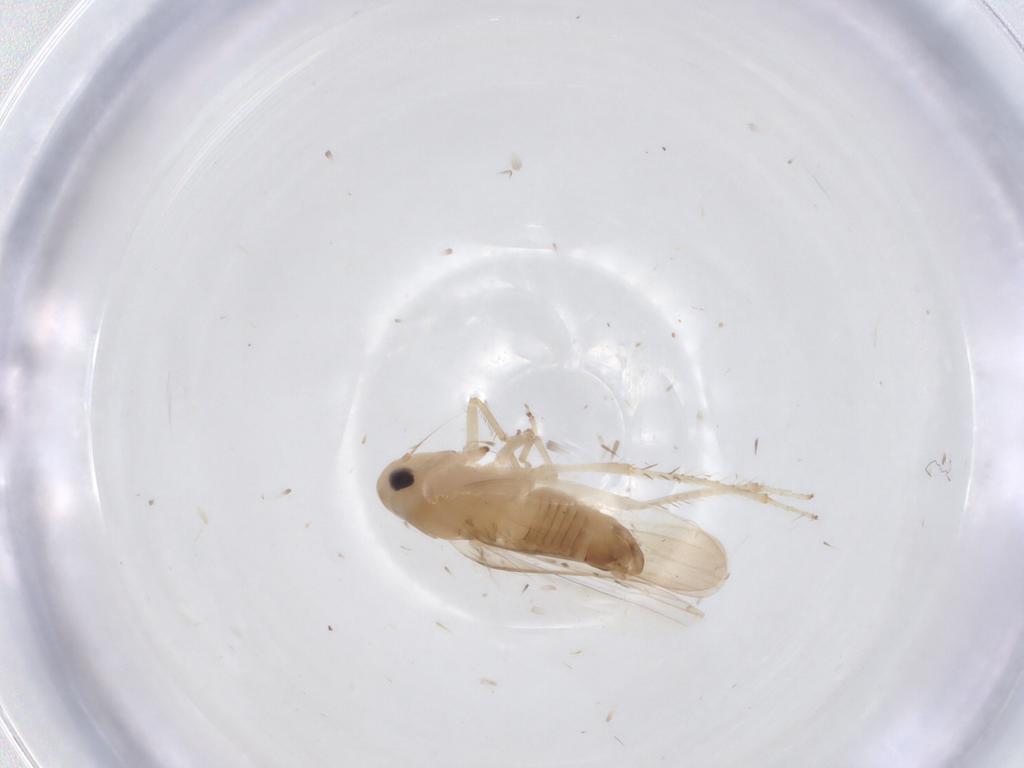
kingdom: Animalia
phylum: Arthropoda
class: Insecta
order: Hemiptera
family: Cicadellidae
